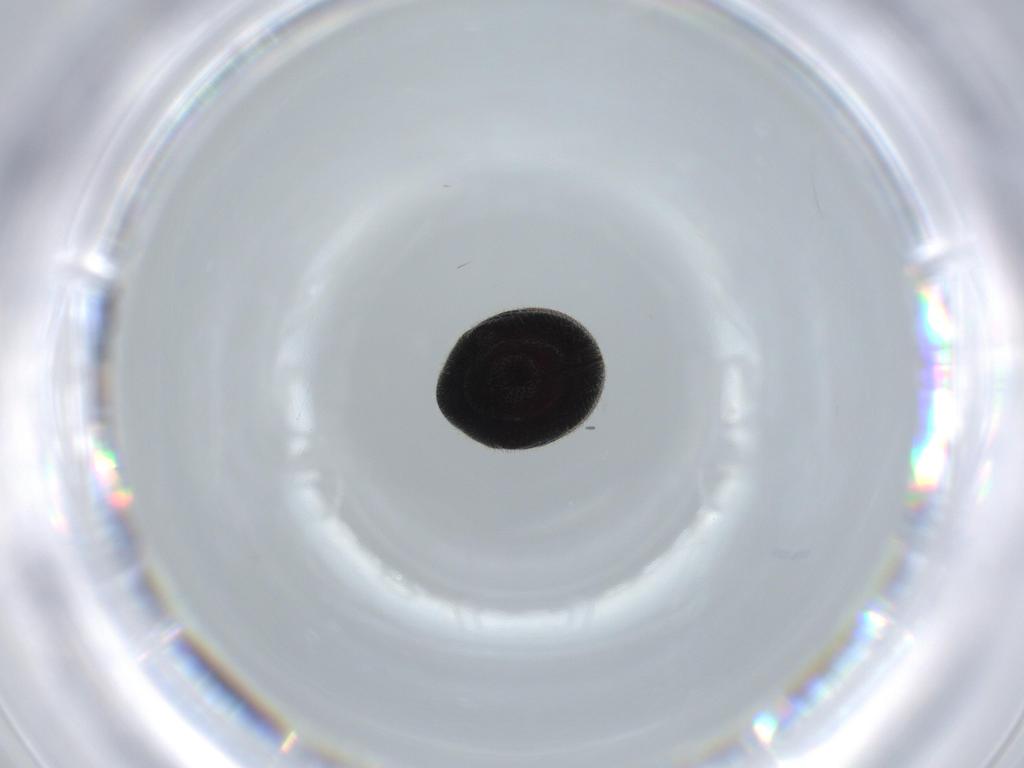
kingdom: Animalia
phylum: Arthropoda
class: Insecta
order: Coleoptera
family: Ptinidae
